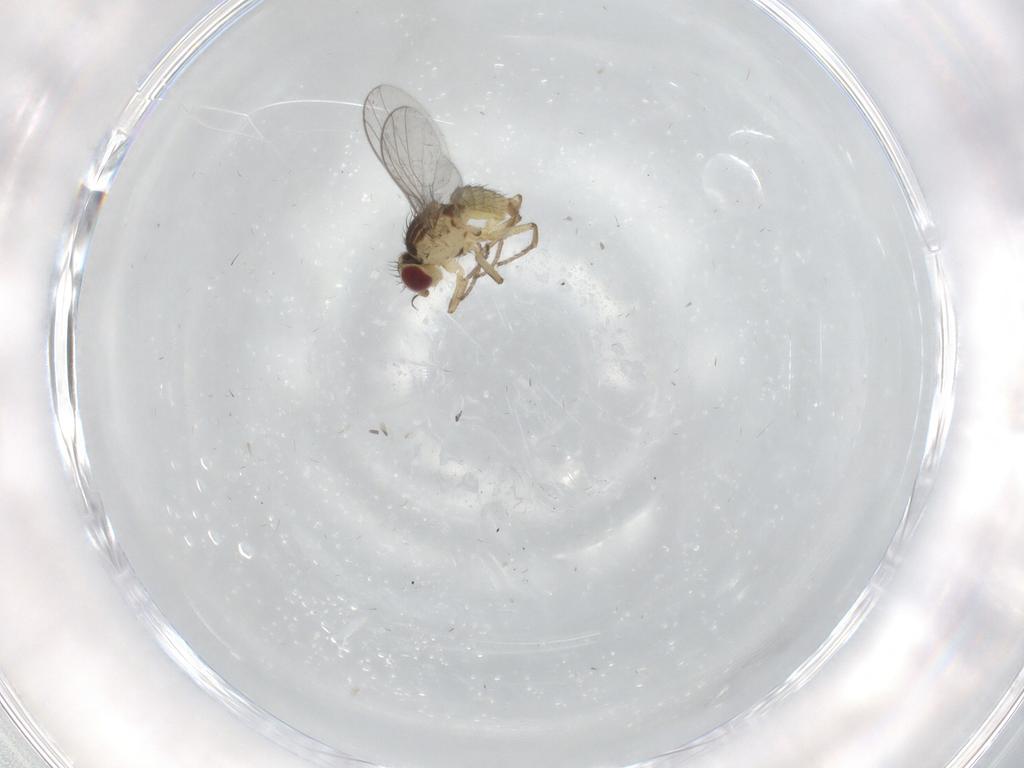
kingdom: Animalia
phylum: Arthropoda
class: Insecta
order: Diptera
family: Agromyzidae
